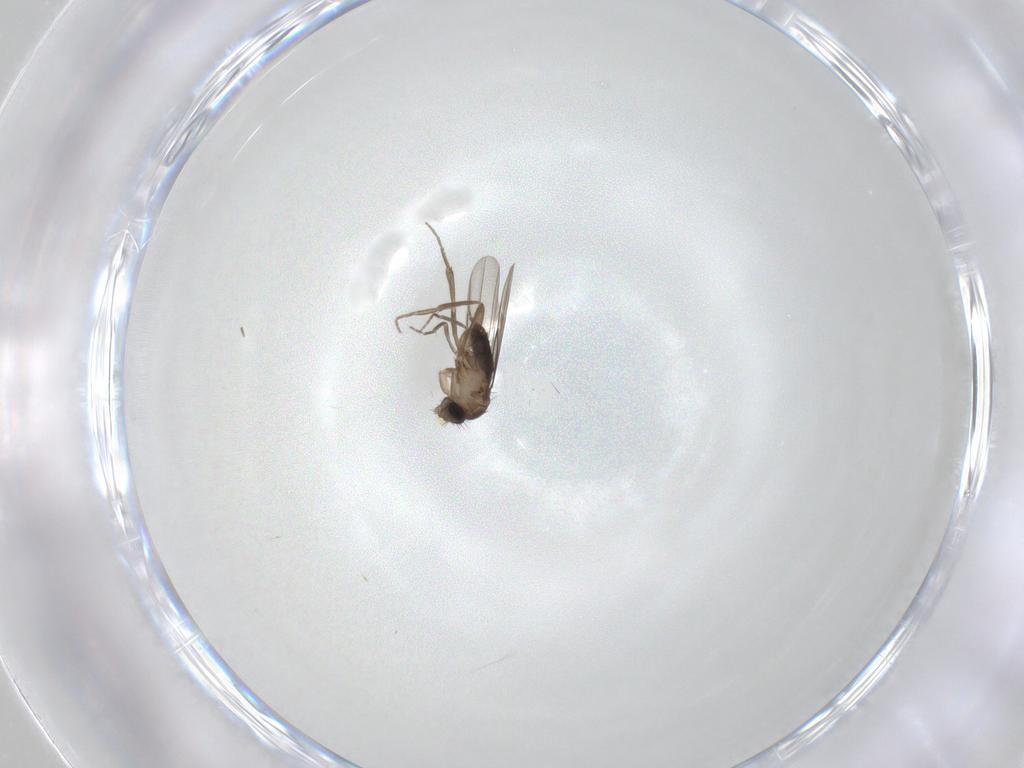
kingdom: Animalia
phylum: Arthropoda
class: Insecta
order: Diptera
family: Phoridae
